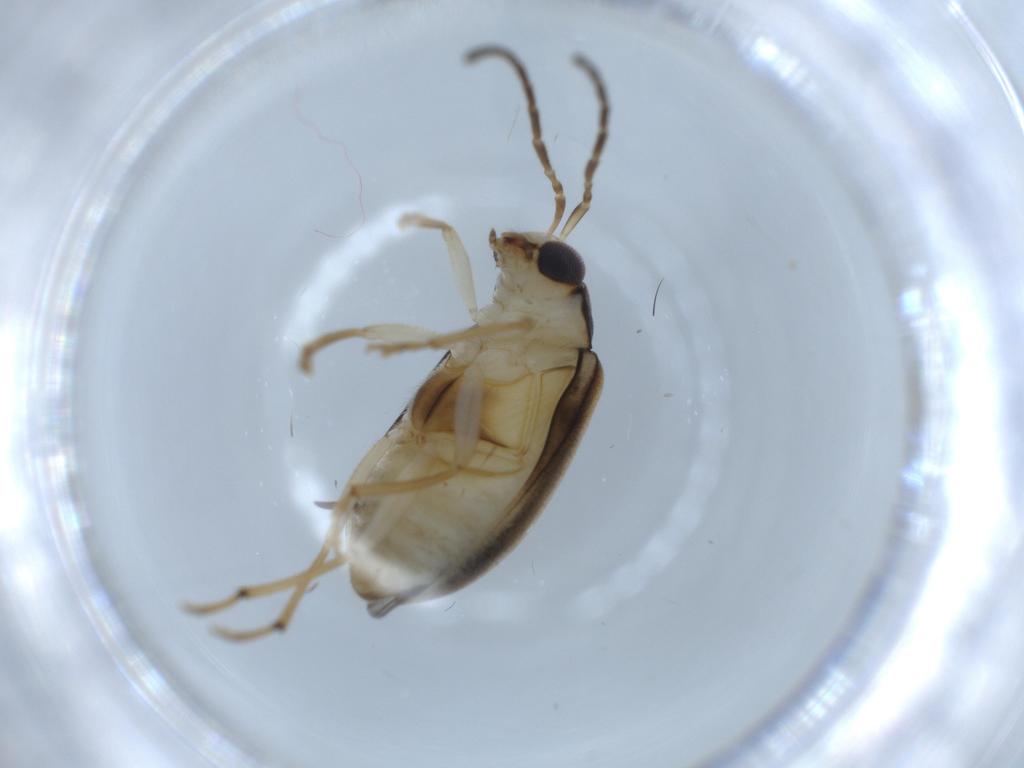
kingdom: Animalia
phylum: Arthropoda
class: Insecta
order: Coleoptera
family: Chrysomelidae
